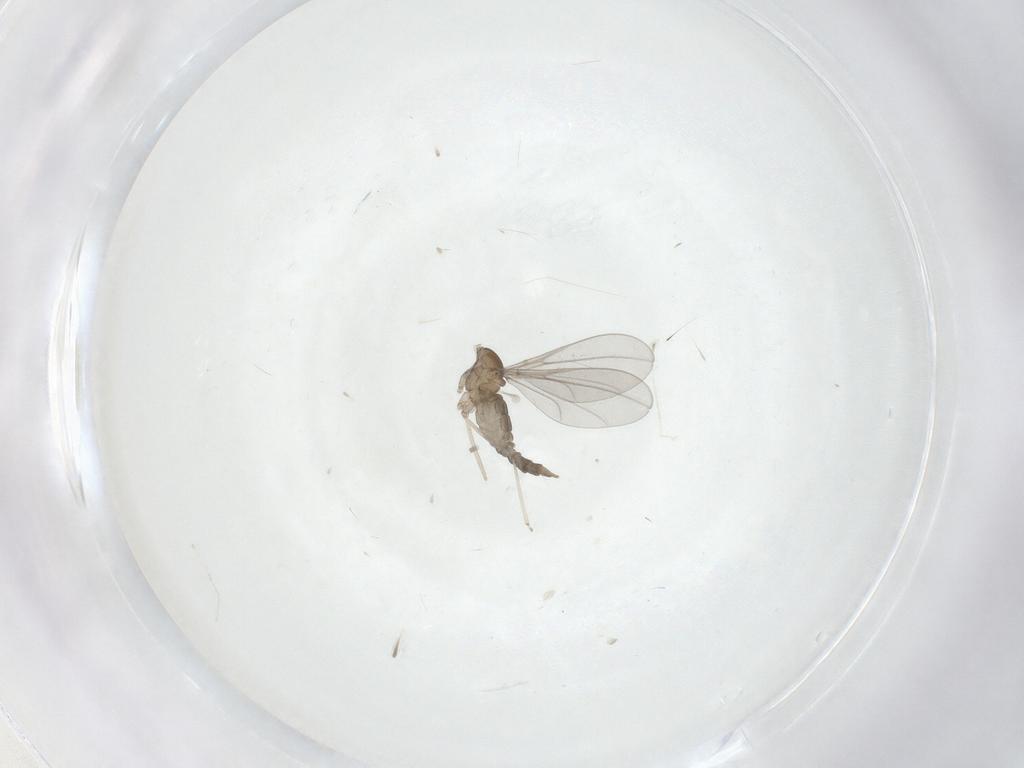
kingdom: Animalia
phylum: Arthropoda
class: Insecta
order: Diptera
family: Cecidomyiidae
